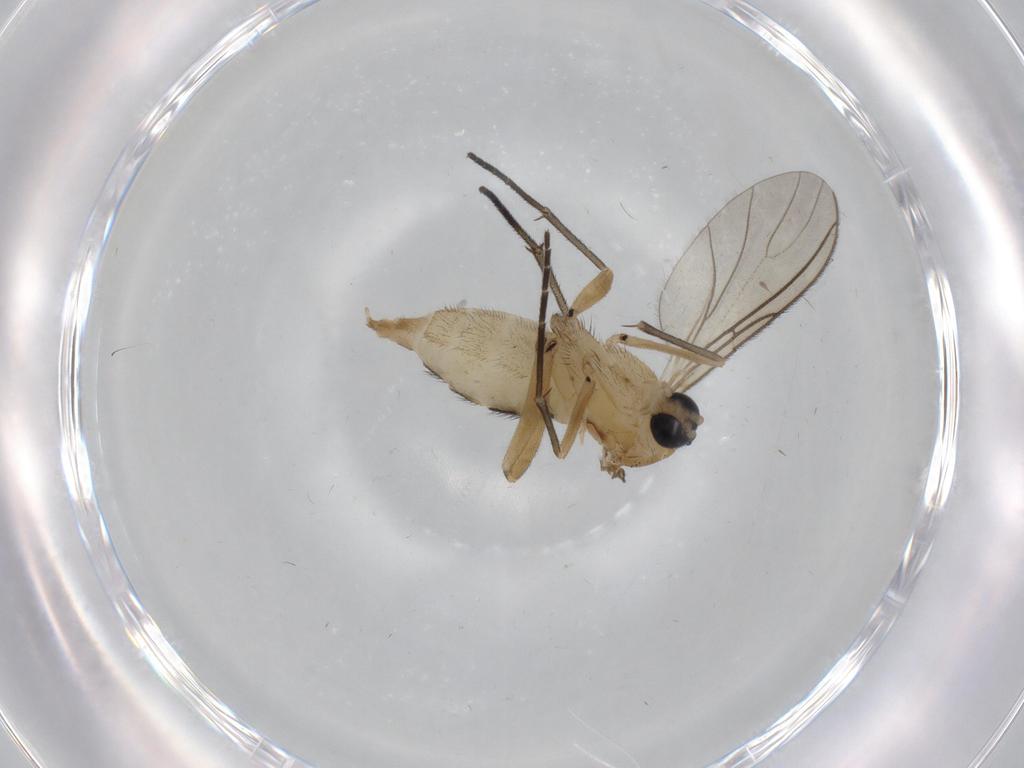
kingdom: Animalia
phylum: Arthropoda
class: Insecta
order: Diptera
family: Sciaridae
